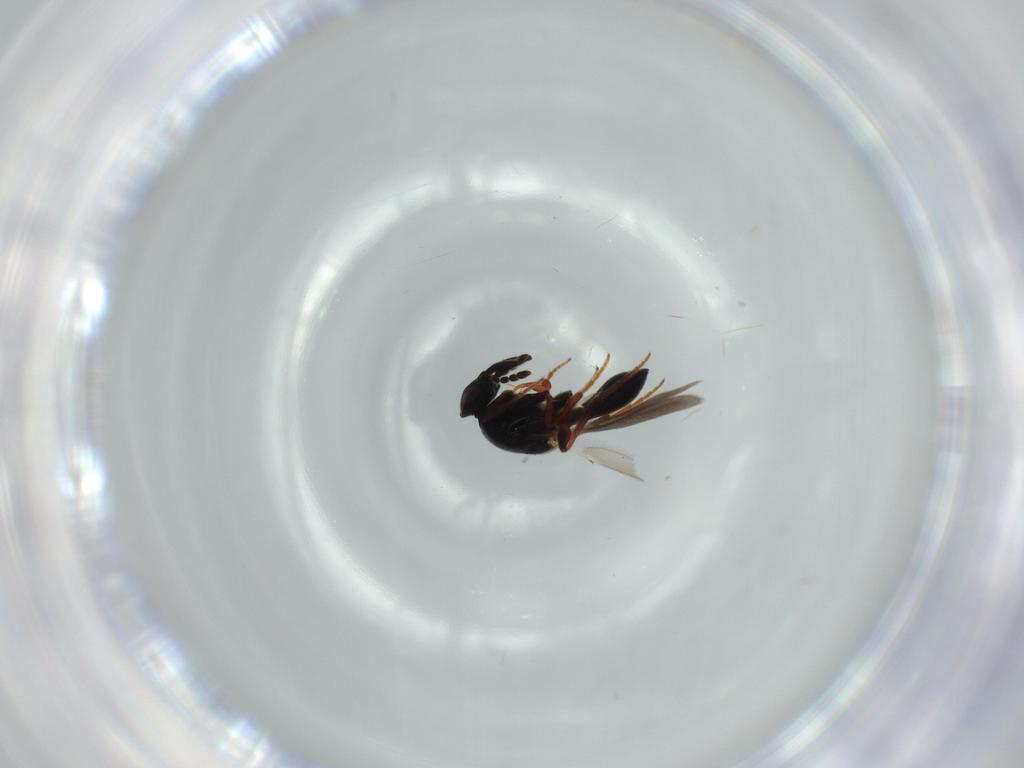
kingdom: Animalia
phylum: Arthropoda
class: Insecta
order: Hymenoptera
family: Platygastridae
